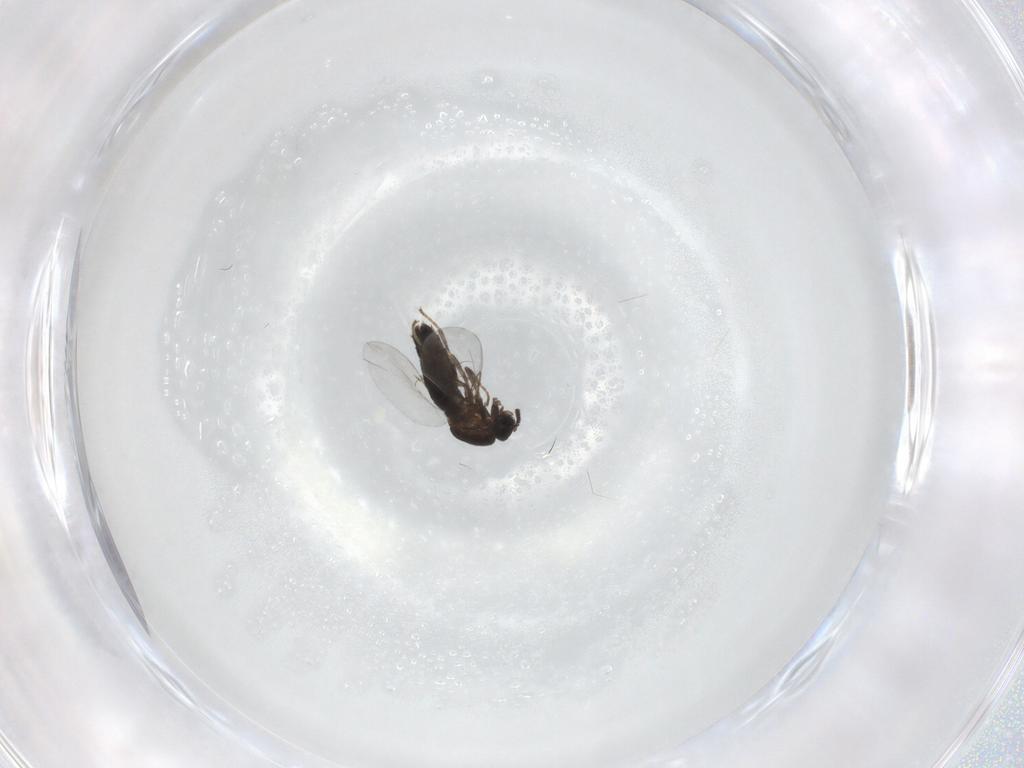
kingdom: Animalia
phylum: Arthropoda
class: Insecta
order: Diptera
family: Scatopsidae
